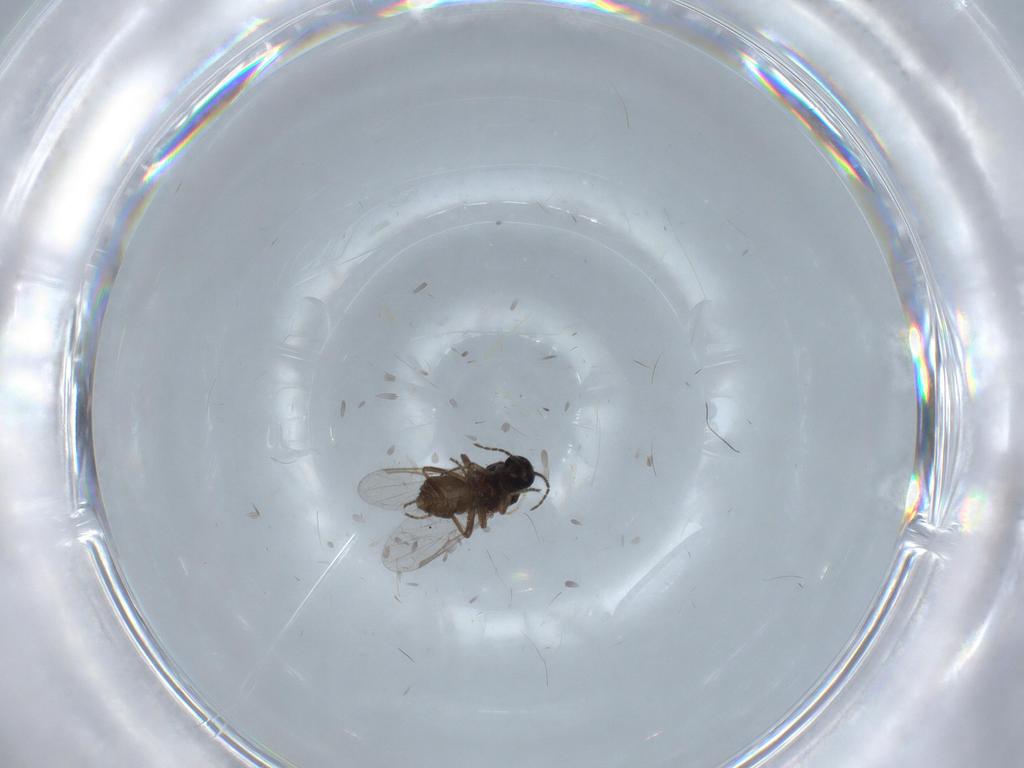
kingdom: Animalia
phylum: Arthropoda
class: Insecta
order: Diptera
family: Ceratopogonidae
